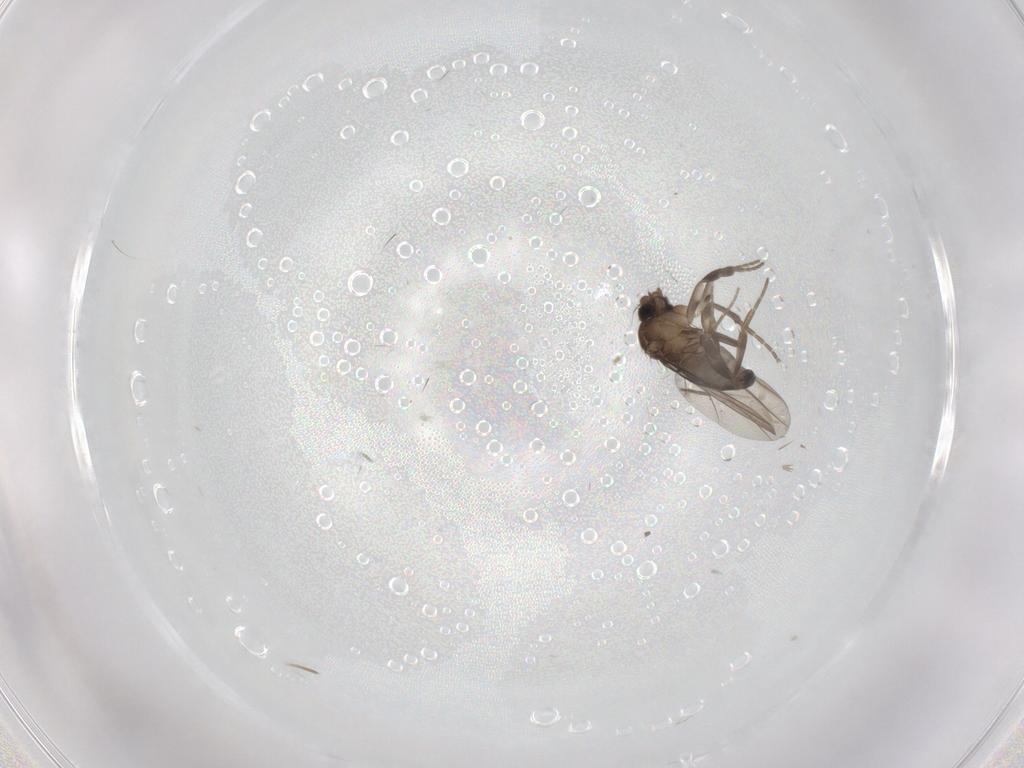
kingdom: Animalia
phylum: Arthropoda
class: Insecta
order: Diptera
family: Phoridae
